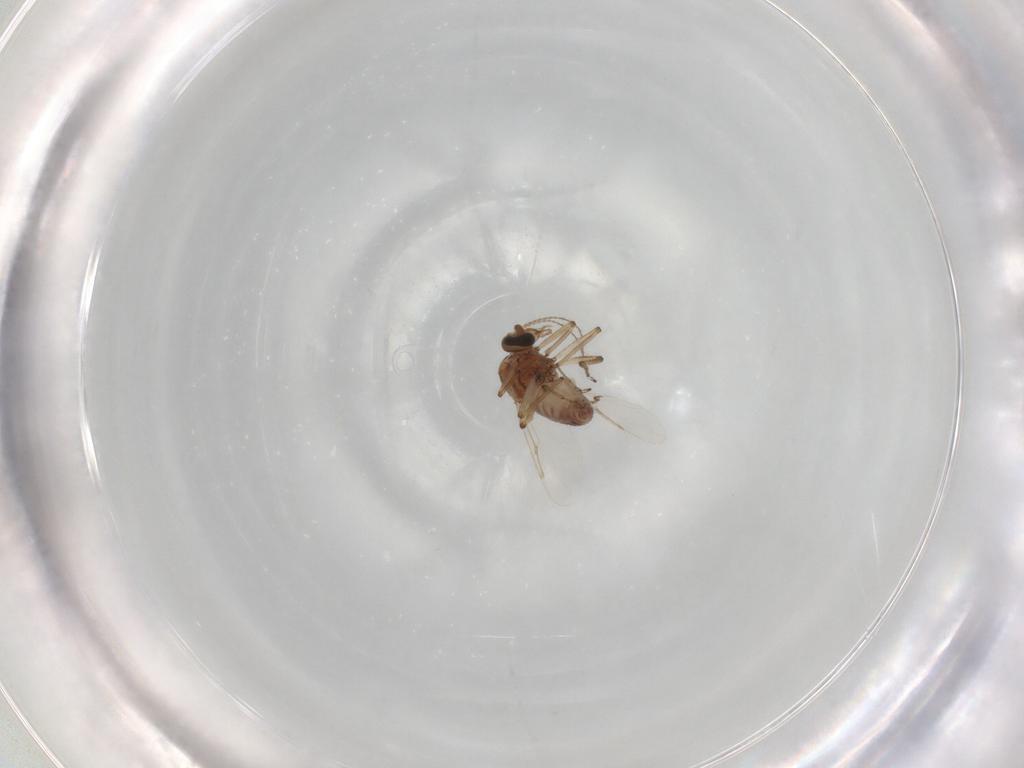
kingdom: Animalia
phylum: Arthropoda
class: Insecta
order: Diptera
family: Ceratopogonidae
